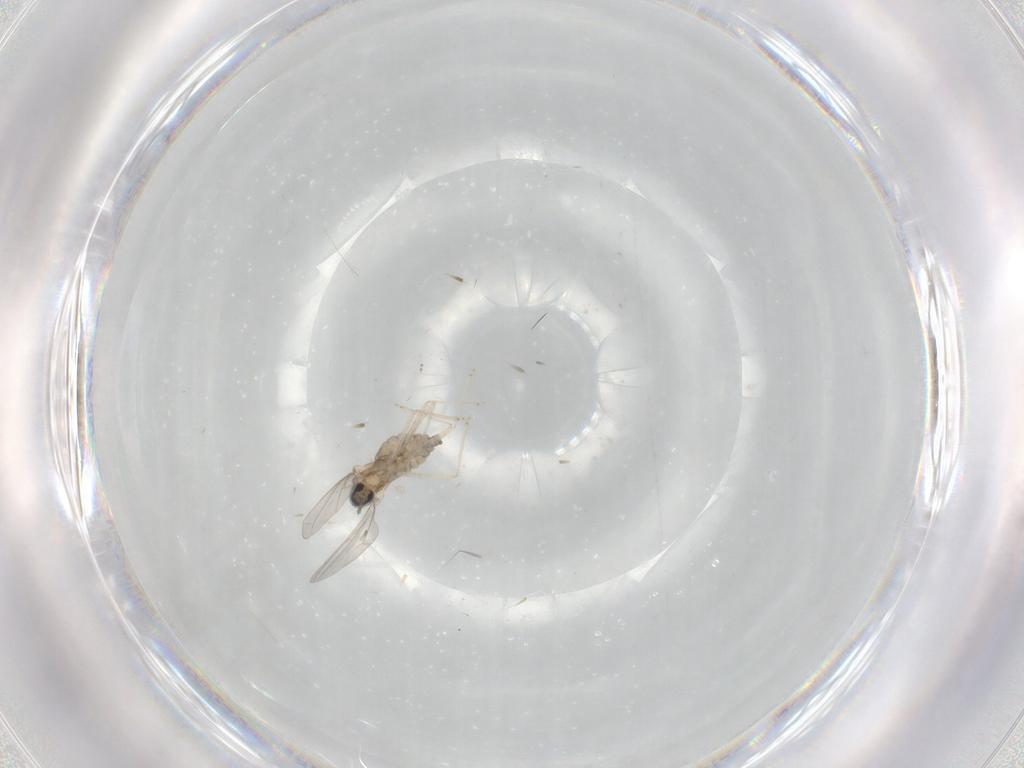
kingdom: Animalia
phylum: Arthropoda
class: Insecta
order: Diptera
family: Cecidomyiidae
